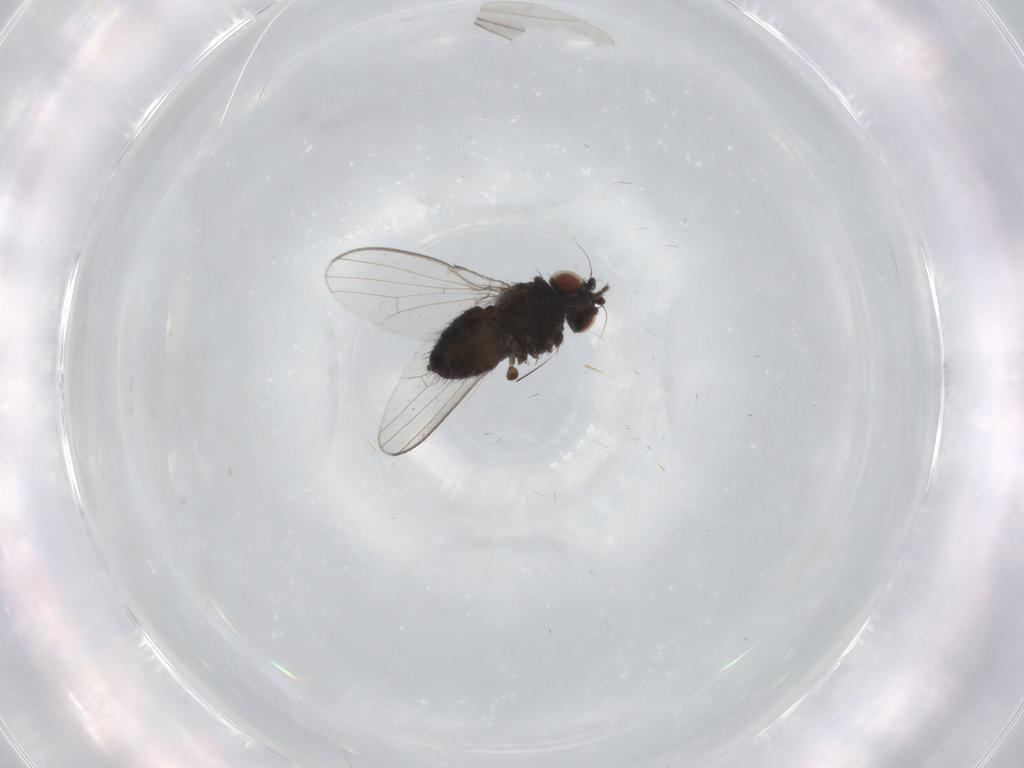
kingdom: Animalia
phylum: Arthropoda
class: Insecta
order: Diptera
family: Milichiidae
